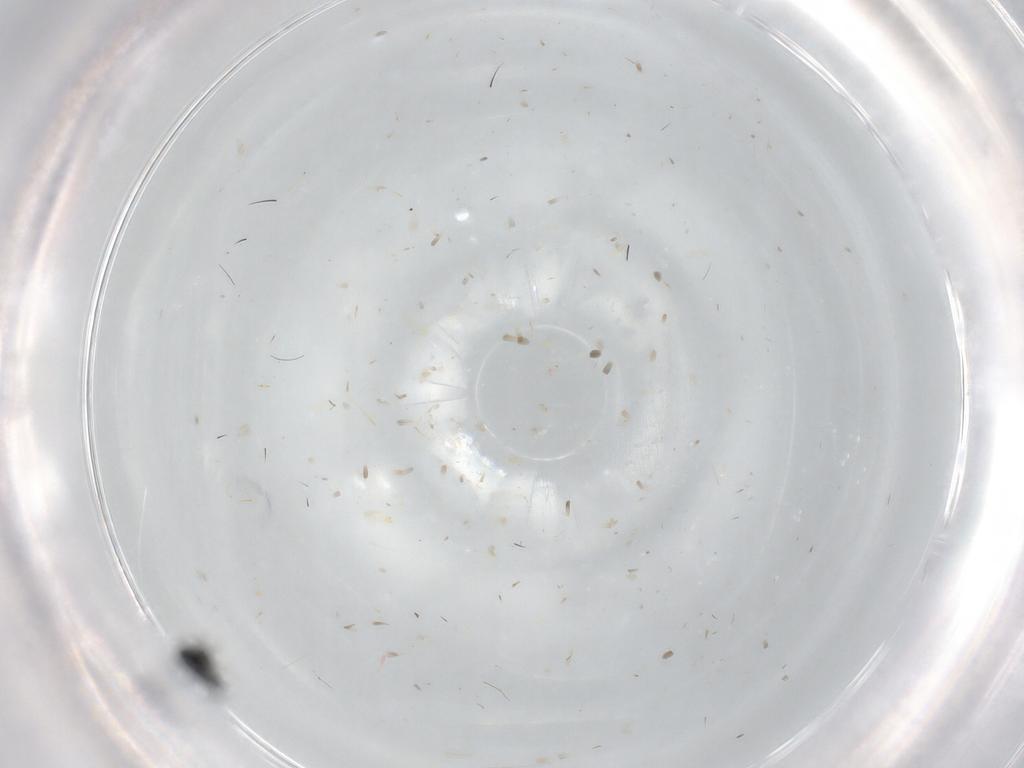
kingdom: Animalia
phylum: Arthropoda
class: Insecta
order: Hymenoptera
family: Scelionidae
